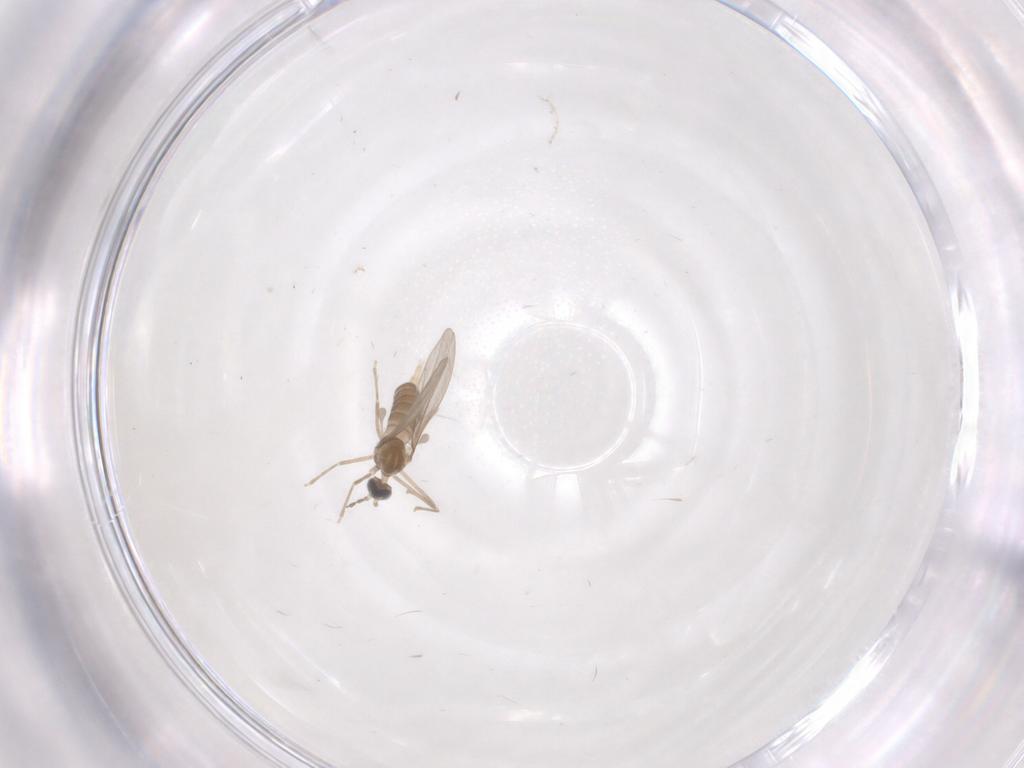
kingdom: Animalia
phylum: Arthropoda
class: Insecta
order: Diptera
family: Cecidomyiidae
